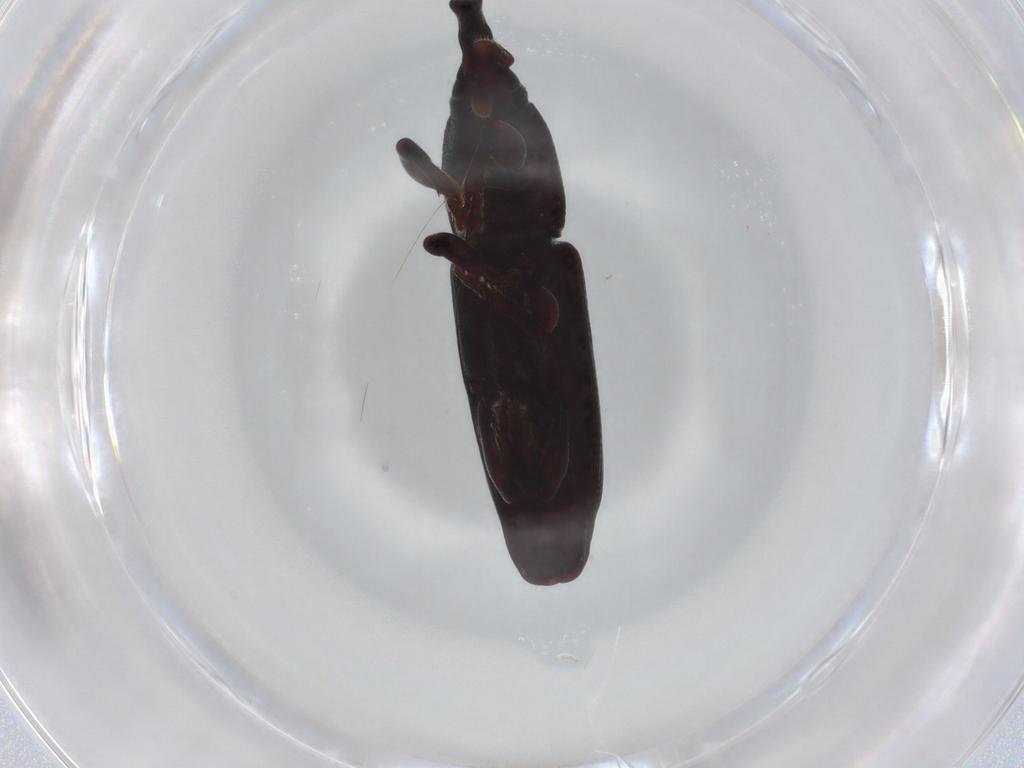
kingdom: Animalia
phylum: Arthropoda
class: Insecta
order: Coleoptera
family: Curculionidae
